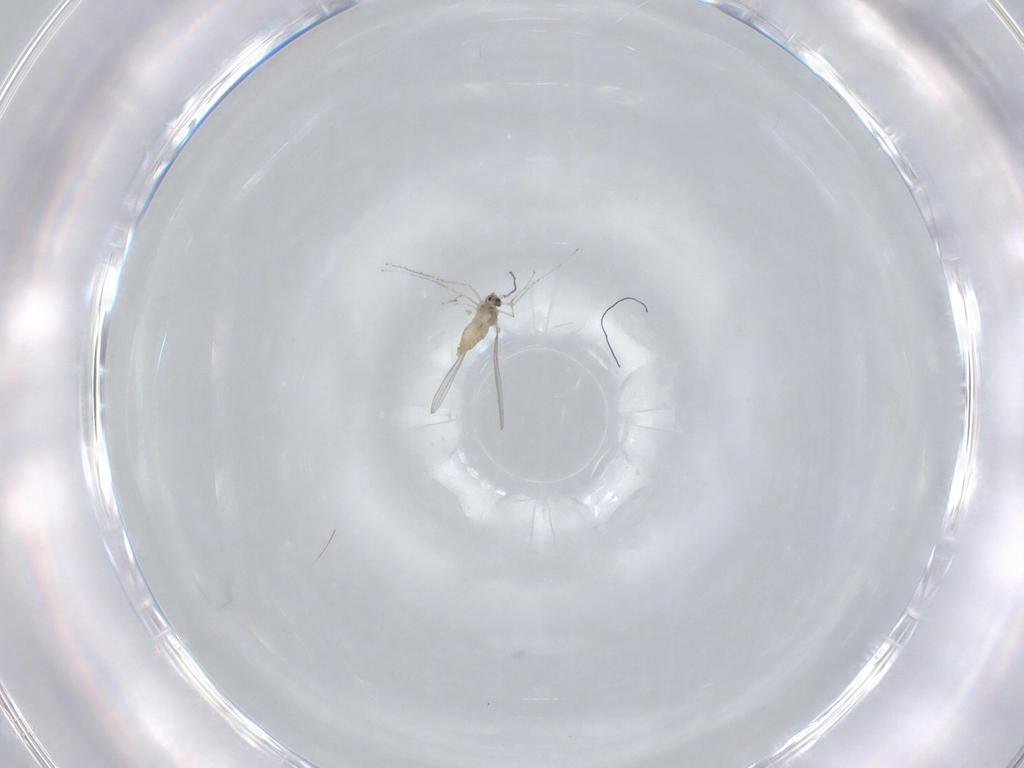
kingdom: Animalia
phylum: Arthropoda
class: Insecta
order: Diptera
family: Cecidomyiidae
